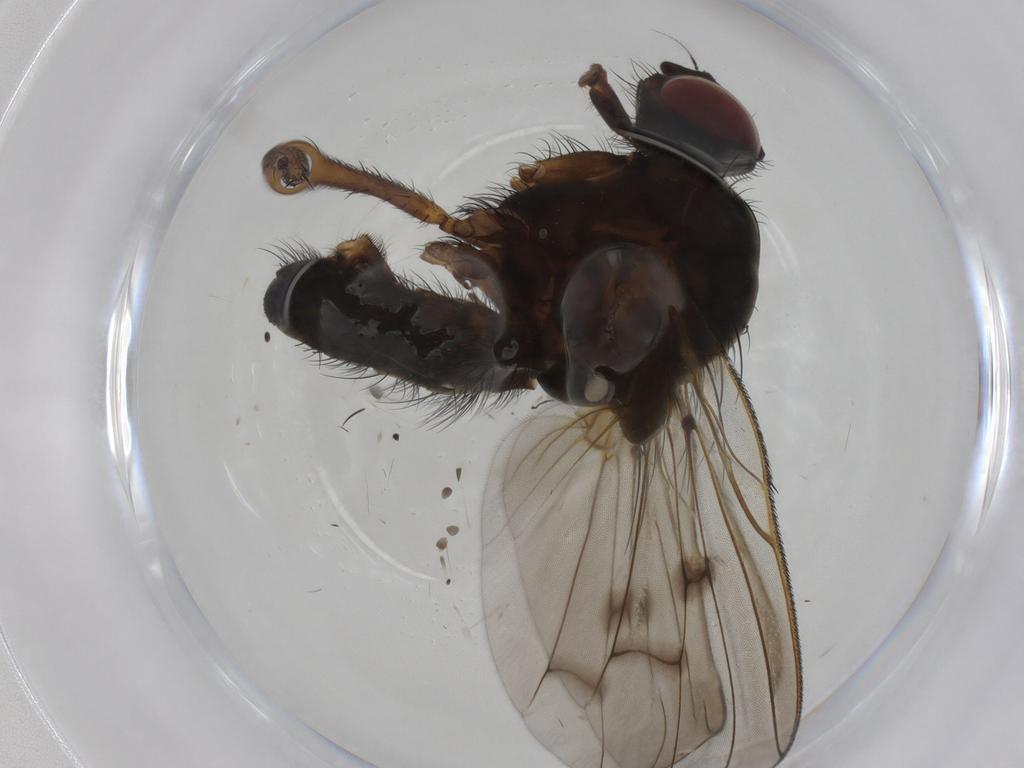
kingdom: Animalia
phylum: Arthropoda
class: Insecta
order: Diptera
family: Anthomyiidae
